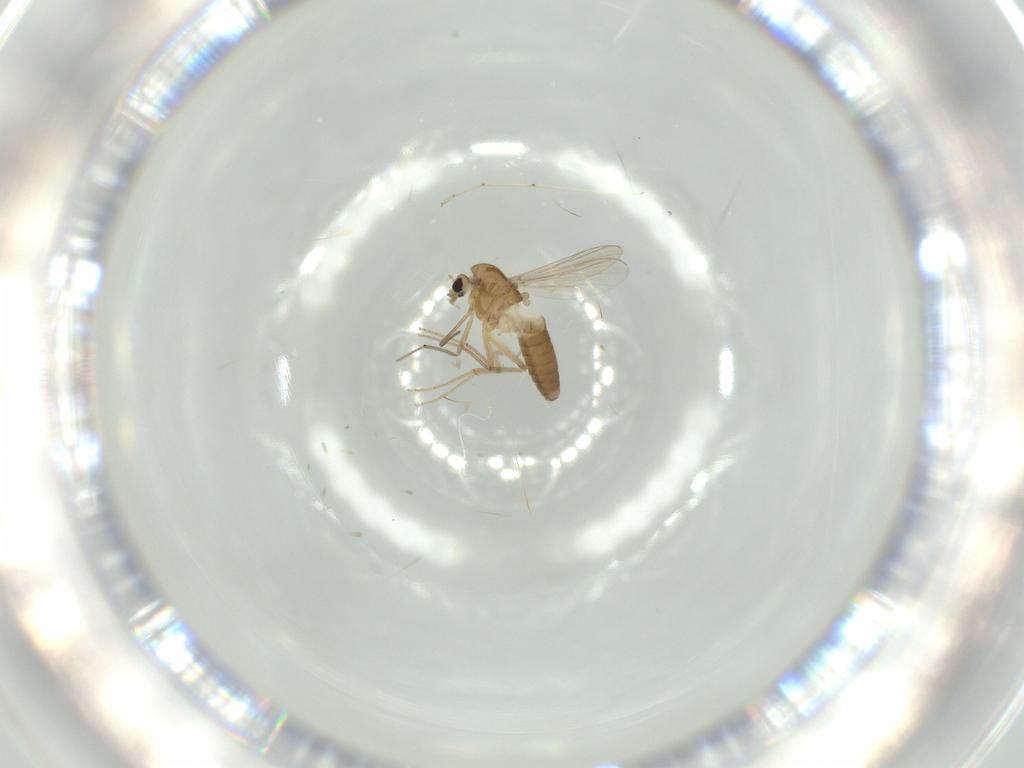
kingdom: Animalia
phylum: Arthropoda
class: Insecta
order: Diptera
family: Chironomidae
